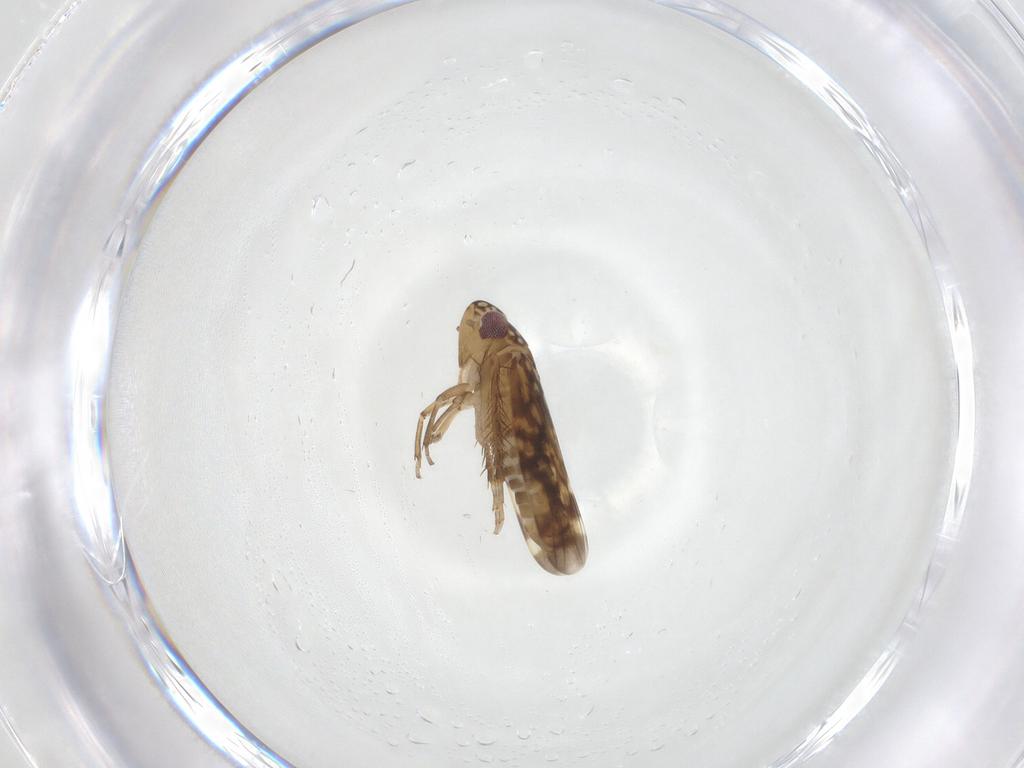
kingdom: Animalia
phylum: Arthropoda
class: Insecta
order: Hemiptera
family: Cicadellidae
